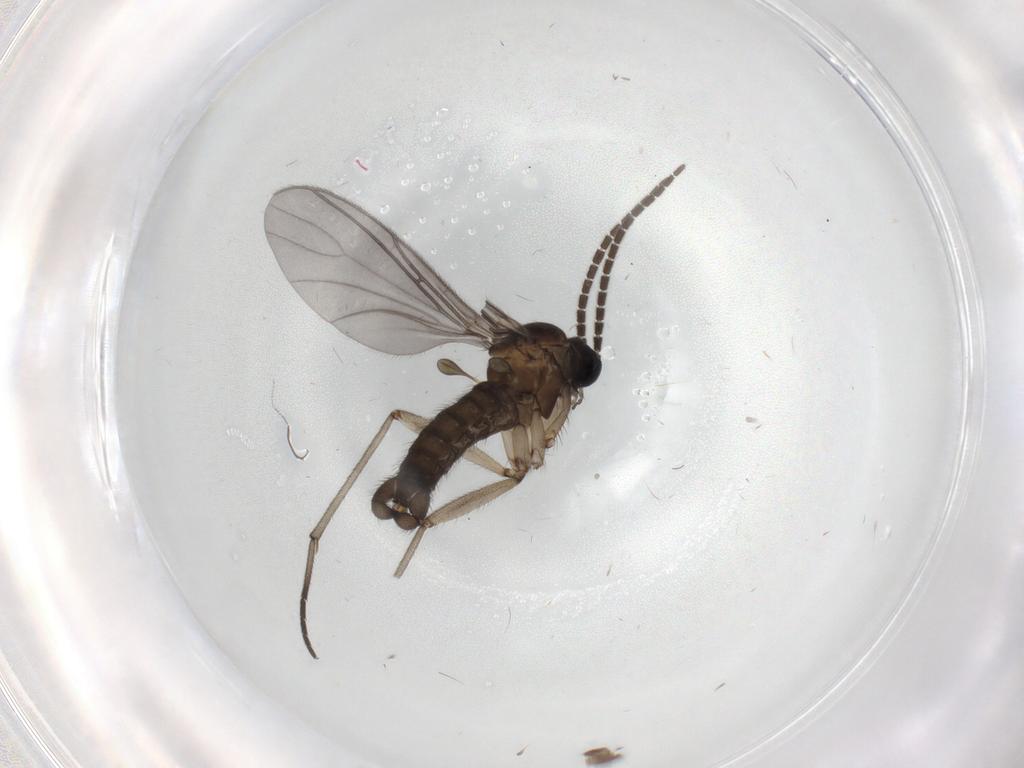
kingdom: Animalia
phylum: Arthropoda
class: Insecta
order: Diptera
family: Sciaridae
